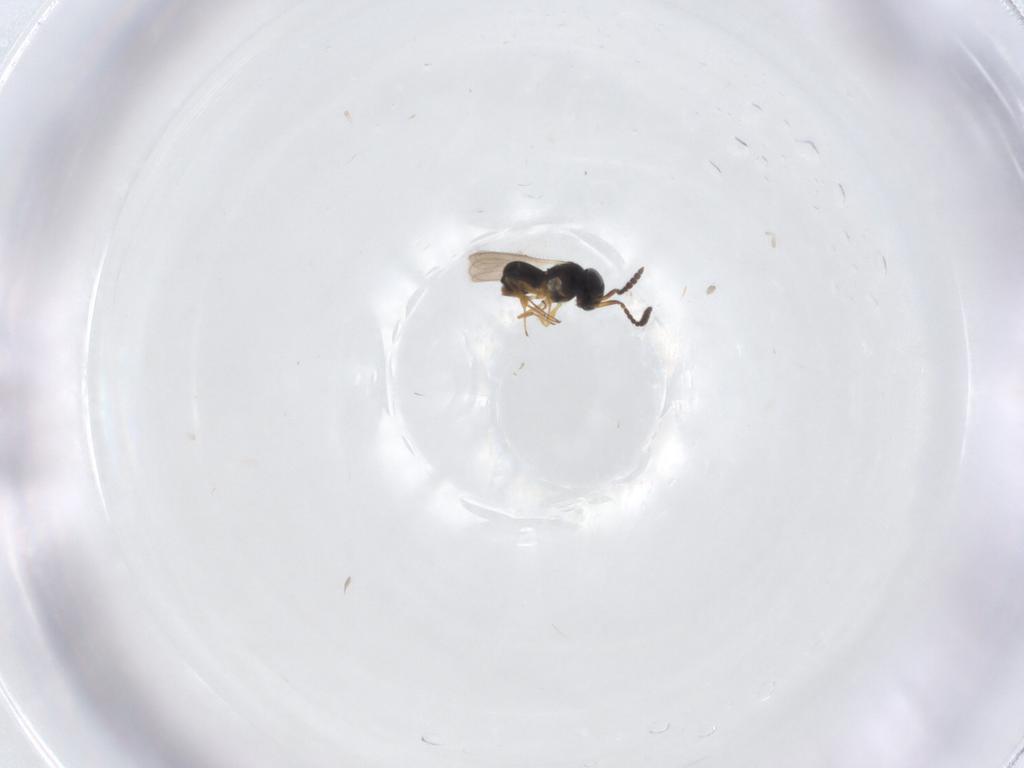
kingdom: Animalia
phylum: Arthropoda
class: Insecta
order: Hymenoptera
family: Scelionidae
